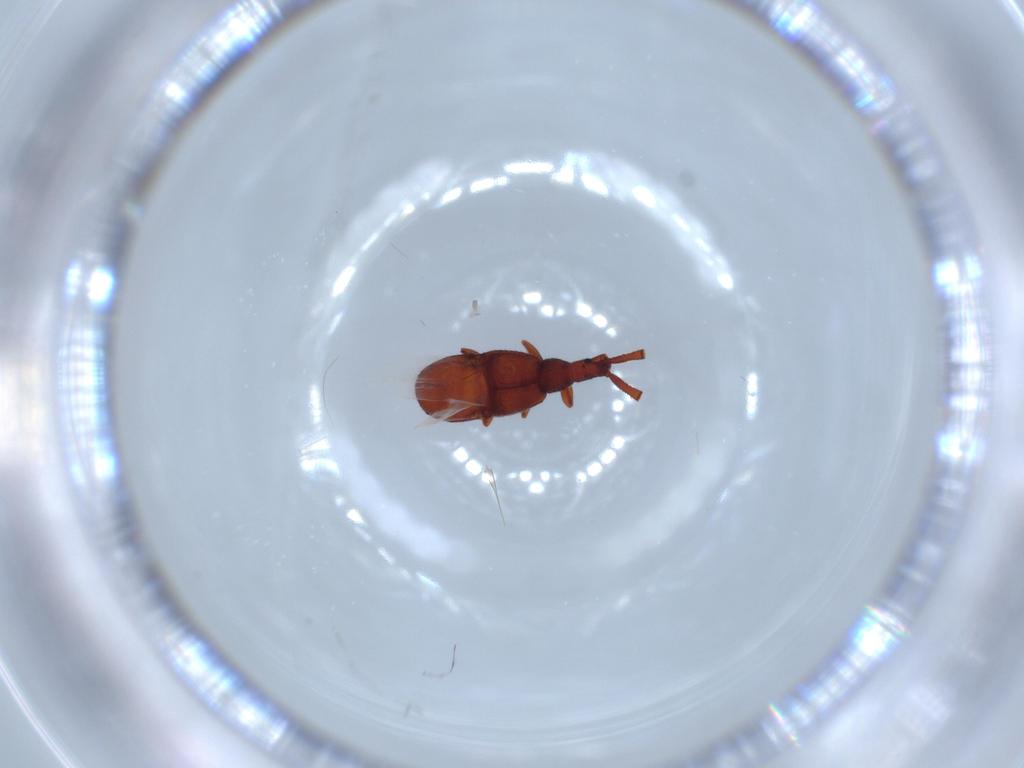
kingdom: Animalia
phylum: Arthropoda
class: Insecta
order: Coleoptera
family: Staphylinidae
